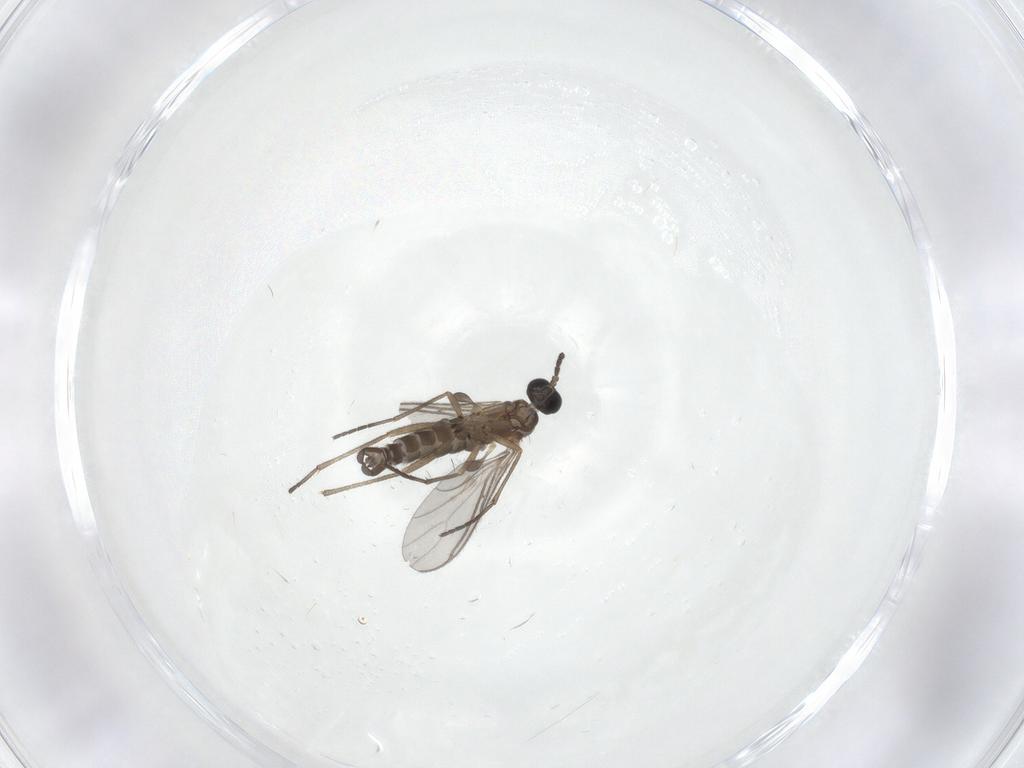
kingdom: Animalia
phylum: Arthropoda
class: Insecta
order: Diptera
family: Sciaridae
